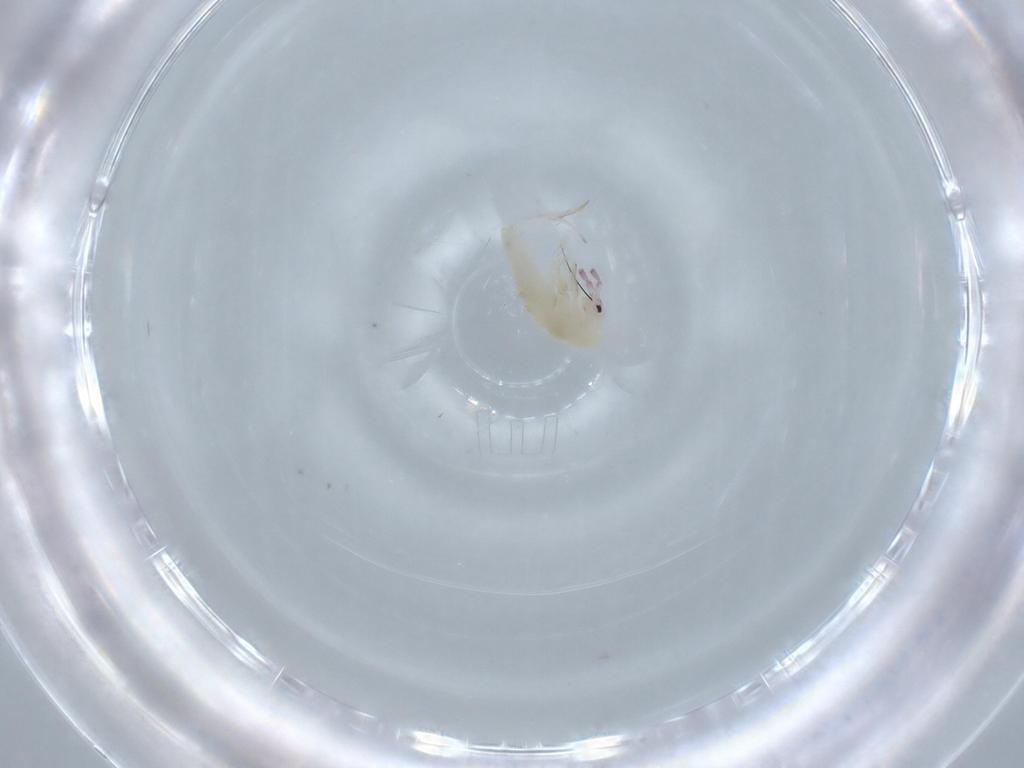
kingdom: Animalia
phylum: Arthropoda
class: Collembola
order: Entomobryomorpha
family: Entomobryidae
